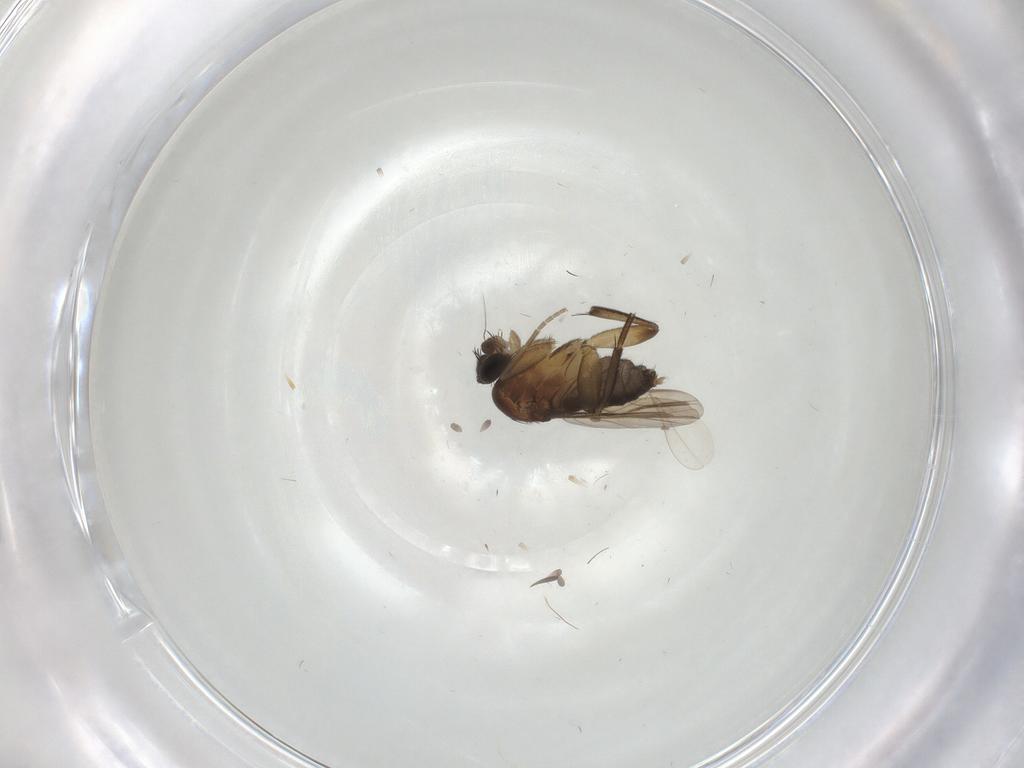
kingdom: Animalia
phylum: Arthropoda
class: Insecta
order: Diptera
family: Phoridae
